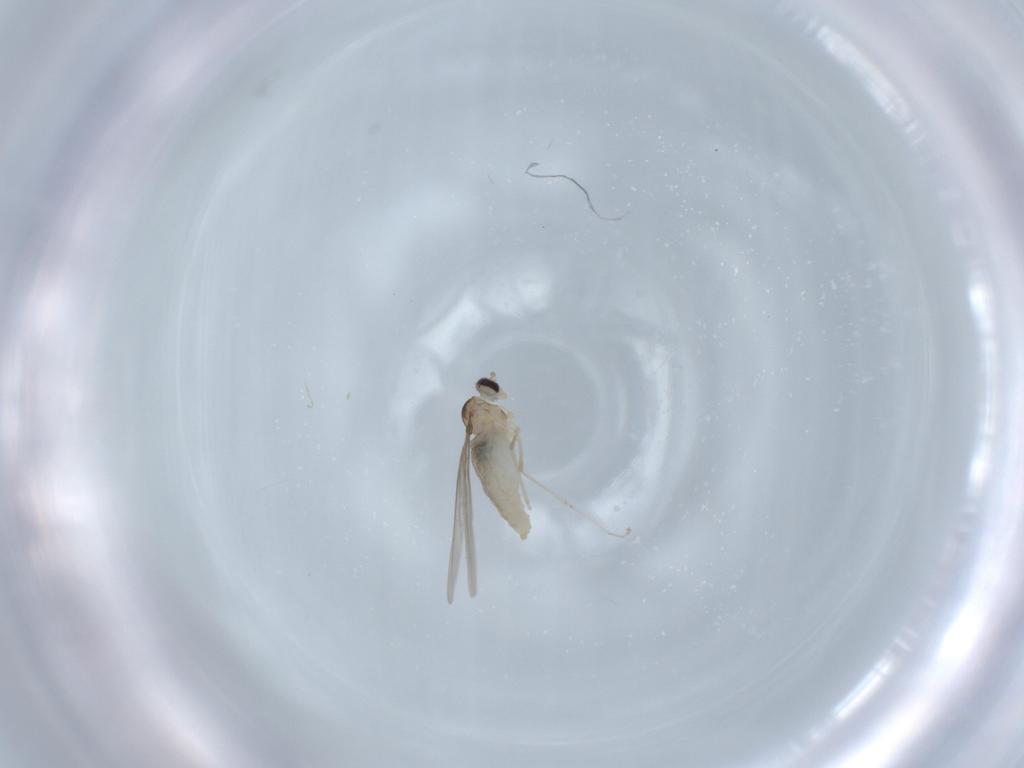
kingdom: Animalia
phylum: Arthropoda
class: Insecta
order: Diptera
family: Cecidomyiidae
